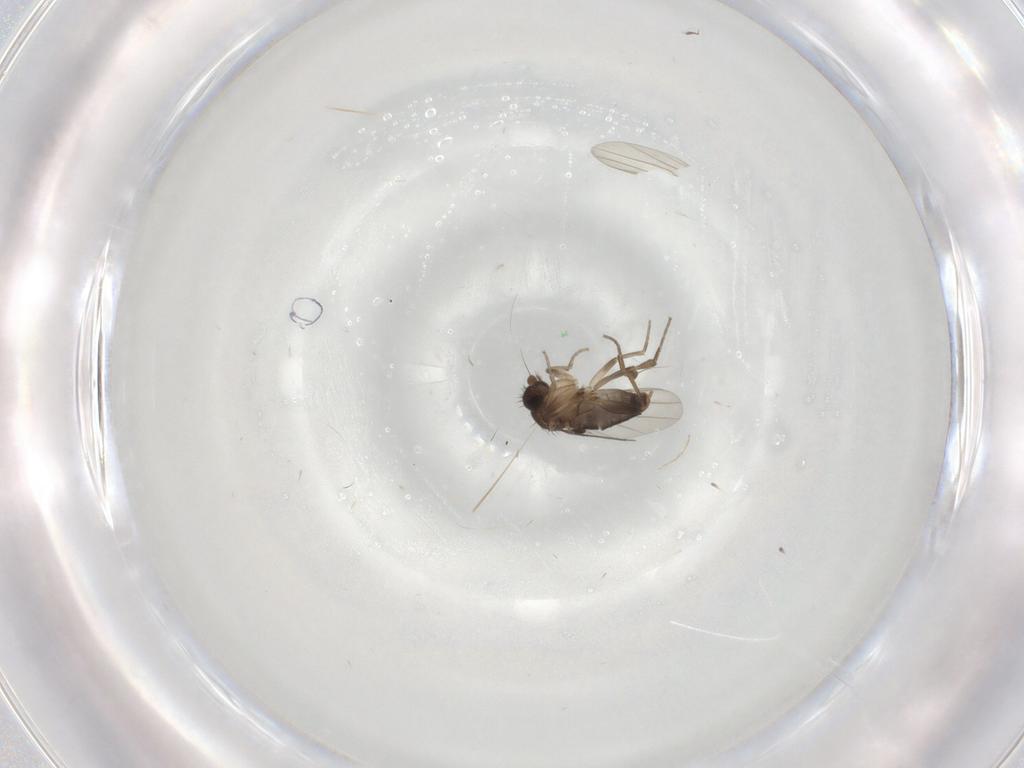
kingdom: Animalia
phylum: Arthropoda
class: Insecta
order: Diptera
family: Phoridae
